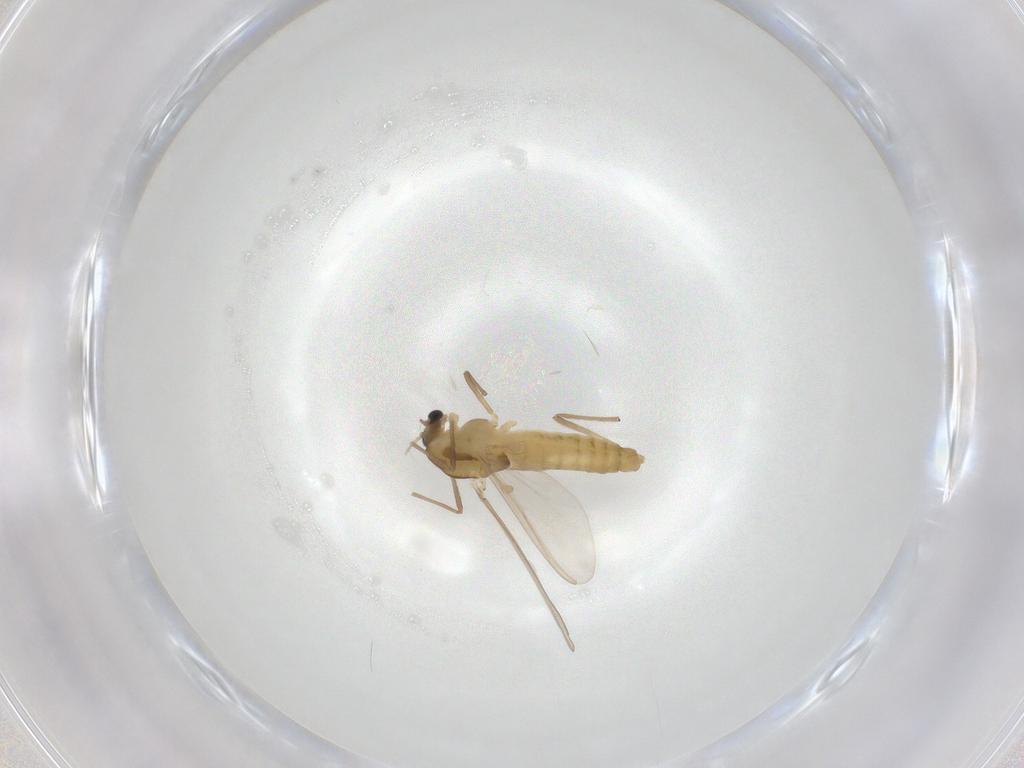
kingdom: Animalia
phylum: Arthropoda
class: Insecta
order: Diptera
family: Chironomidae
